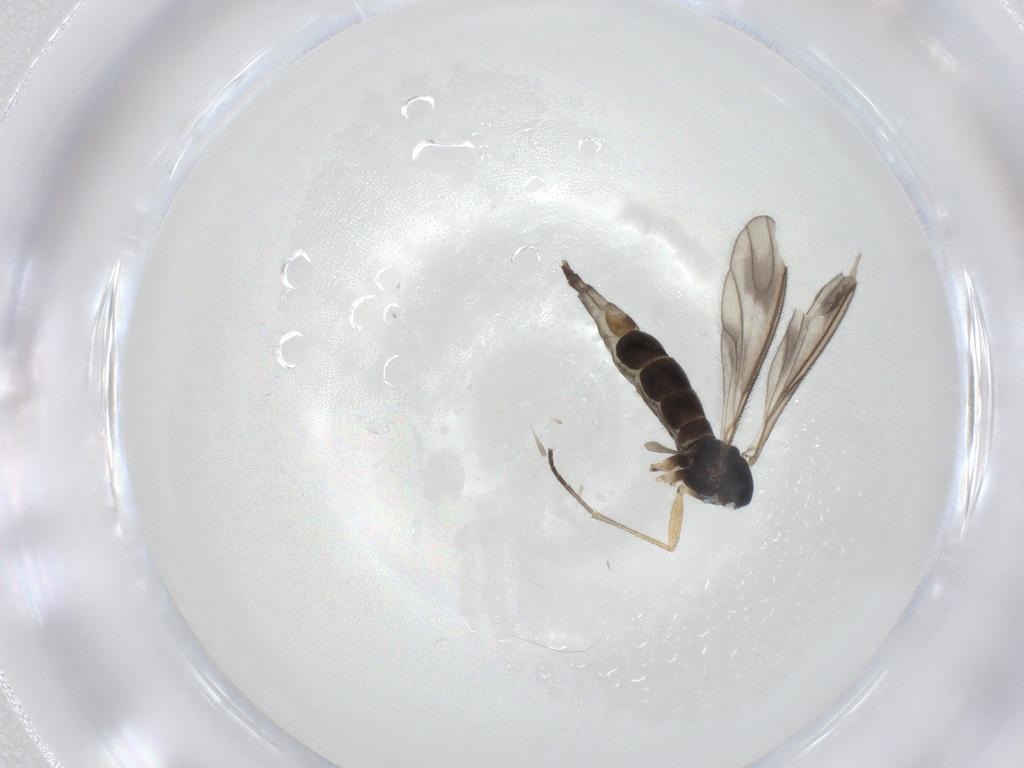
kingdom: Animalia
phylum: Arthropoda
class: Insecta
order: Diptera
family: Sciaridae
